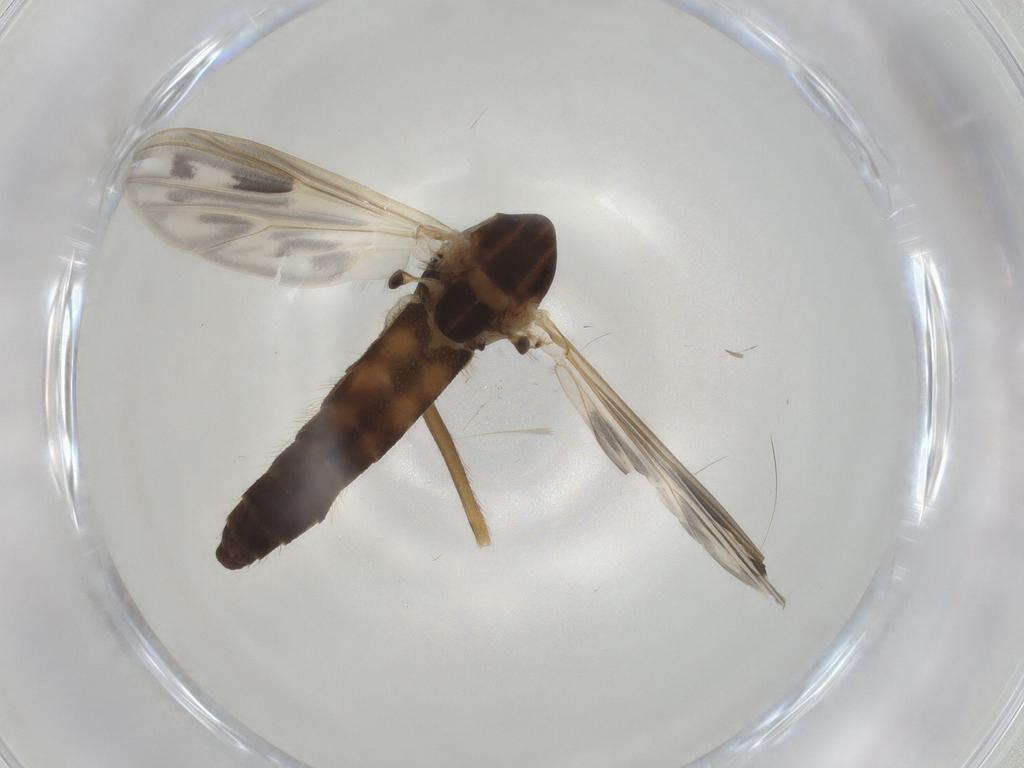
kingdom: Animalia
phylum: Arthropoda
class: Insecta
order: Diptera
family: Chironomidae
